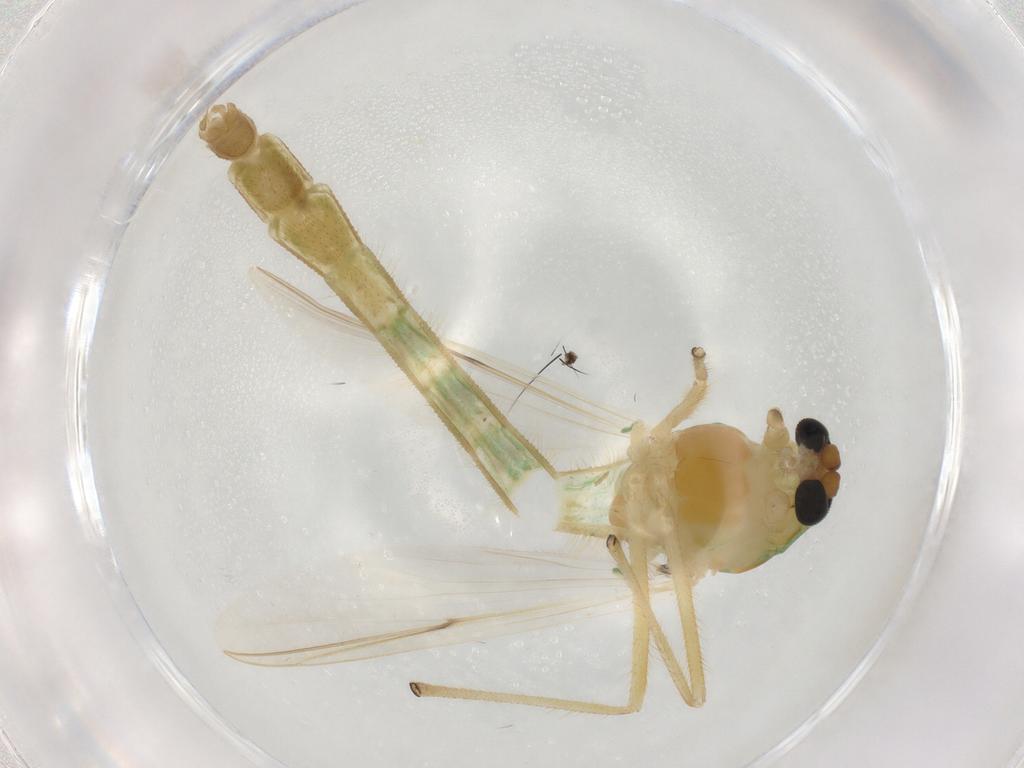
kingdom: Animalia
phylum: Arthropoda
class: Insecta
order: Diptera
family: Chironomidae
